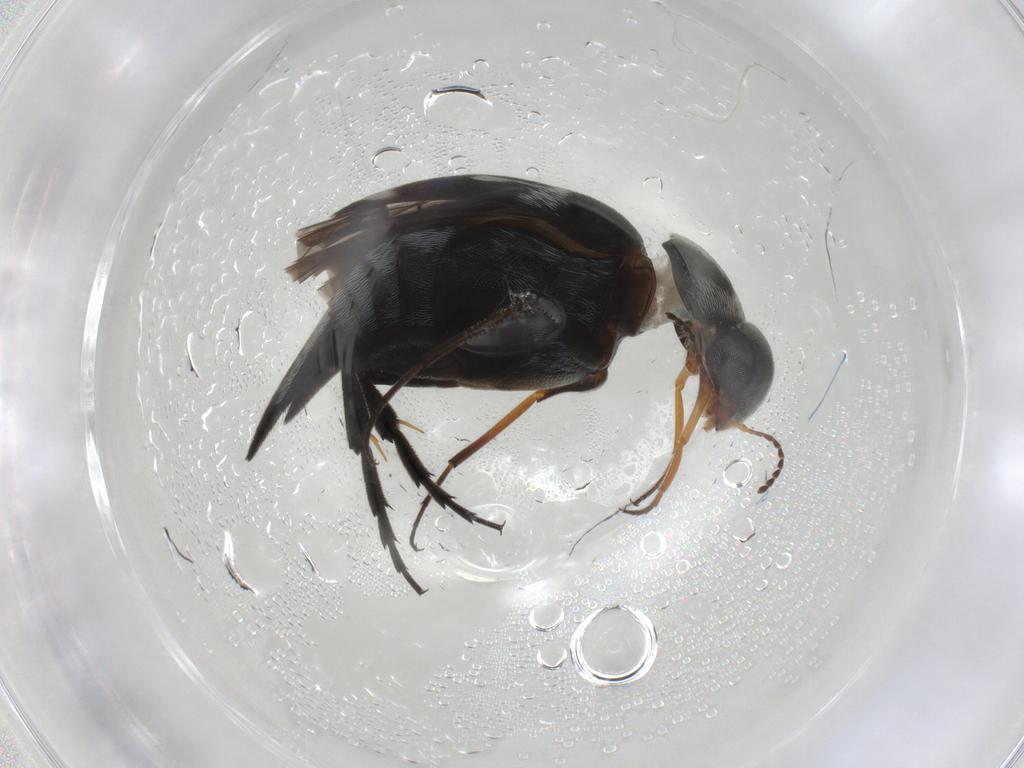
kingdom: Animalia
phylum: Arthropoda
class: Insecta
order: Coleoptera
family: Mordellidae
